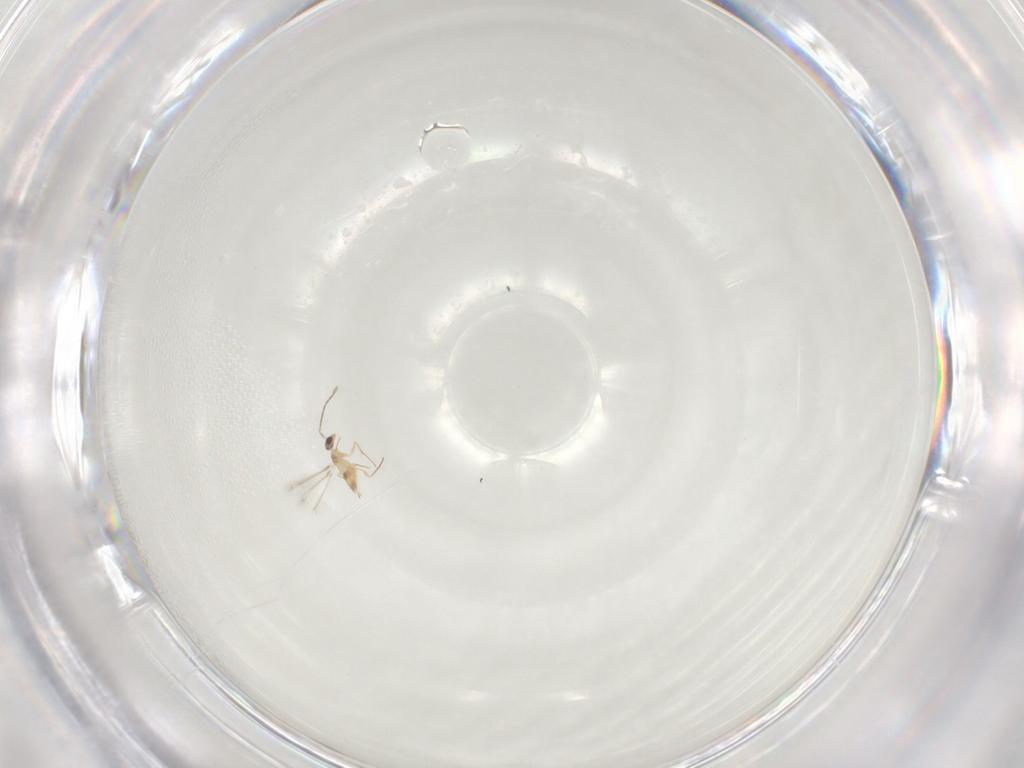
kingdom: Animalia
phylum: Arthropoda
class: Insecta
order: Hymenoptera
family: Mymaridae
